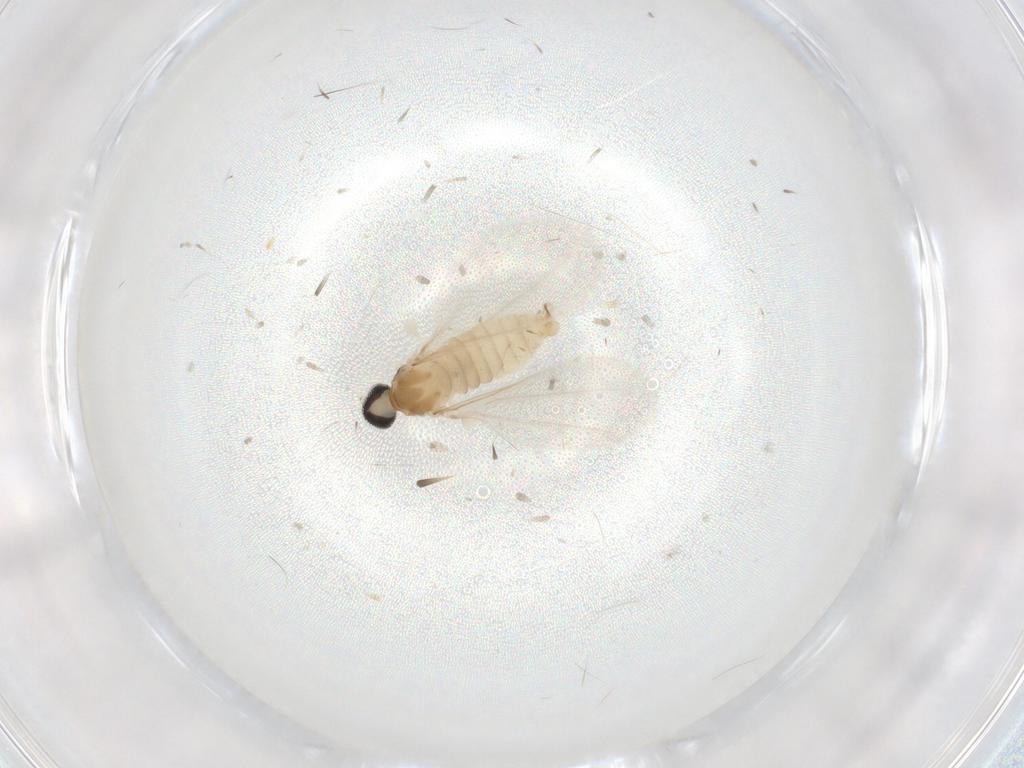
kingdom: Animalia
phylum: Arthropoda
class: Insecta
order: Diptera
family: Cecidomyiidae
